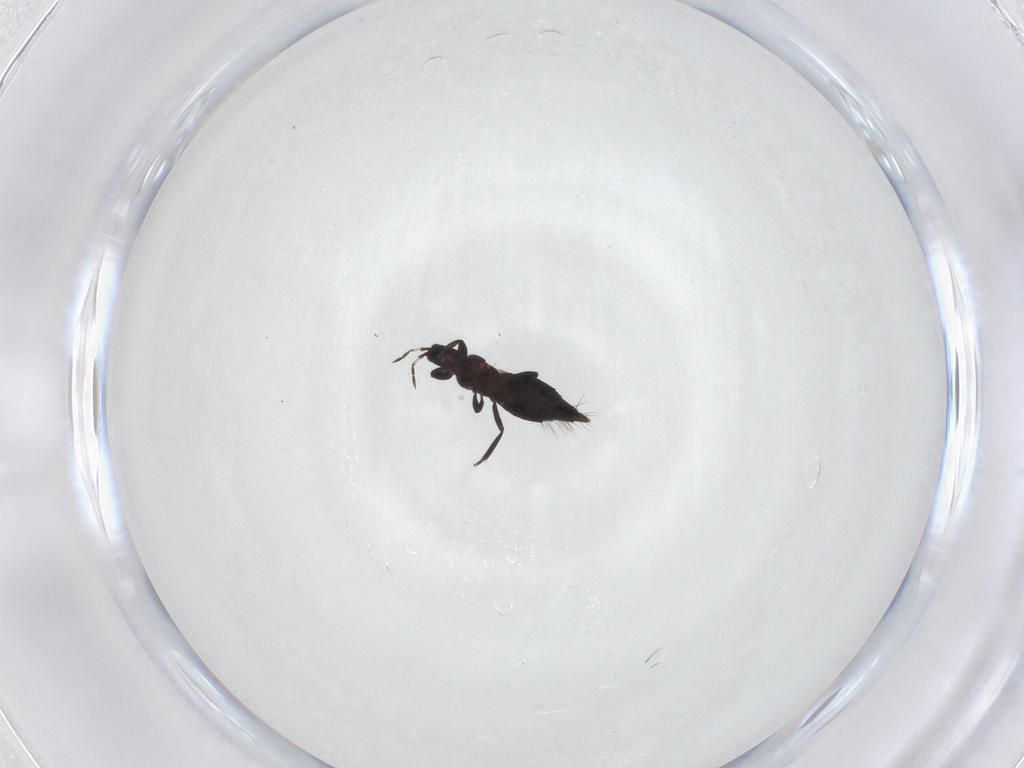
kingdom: Animalia
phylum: Arthropoda
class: Insecta
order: Thysanoptera
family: Aeolothripidae
